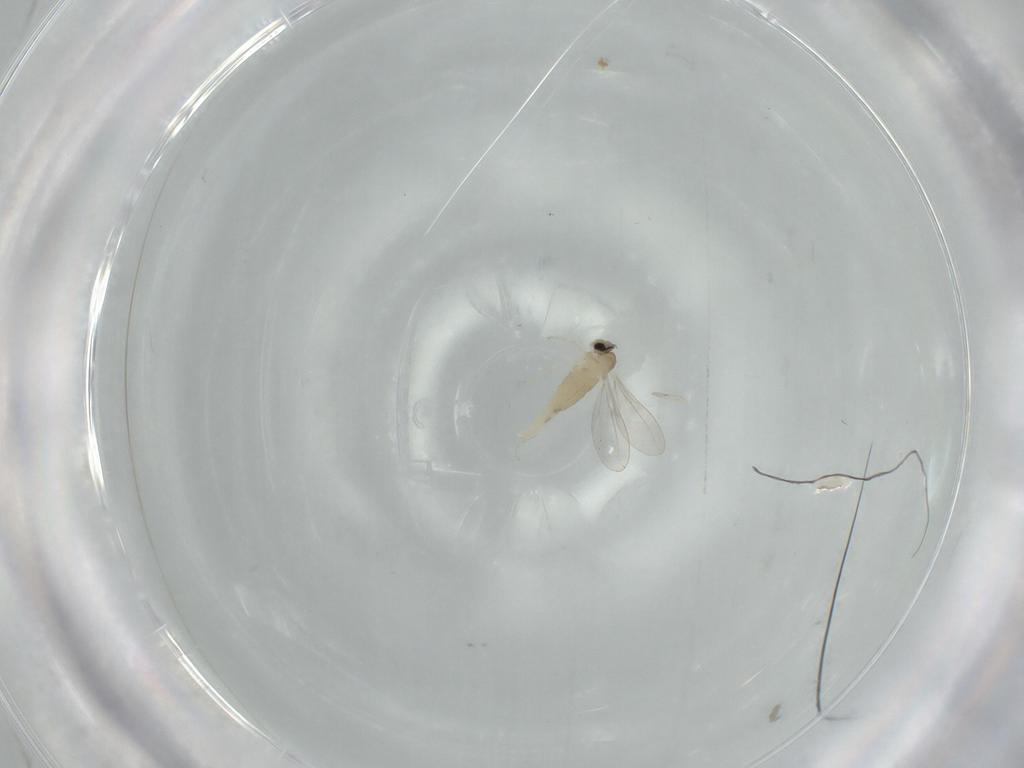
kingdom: Animalia
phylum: Arthropoda
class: Insecta
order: Diptera
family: Cecidomyiidae
